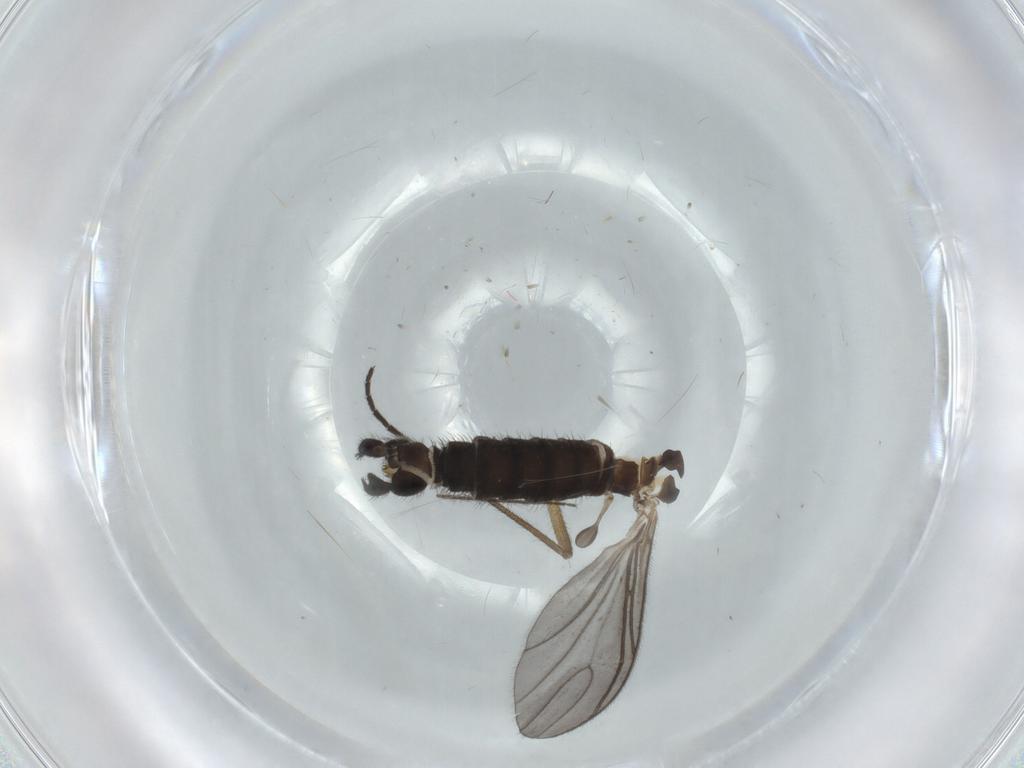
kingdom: Animalia
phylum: Arthropoda
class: Insecta
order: Diptera
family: Sciaridae
